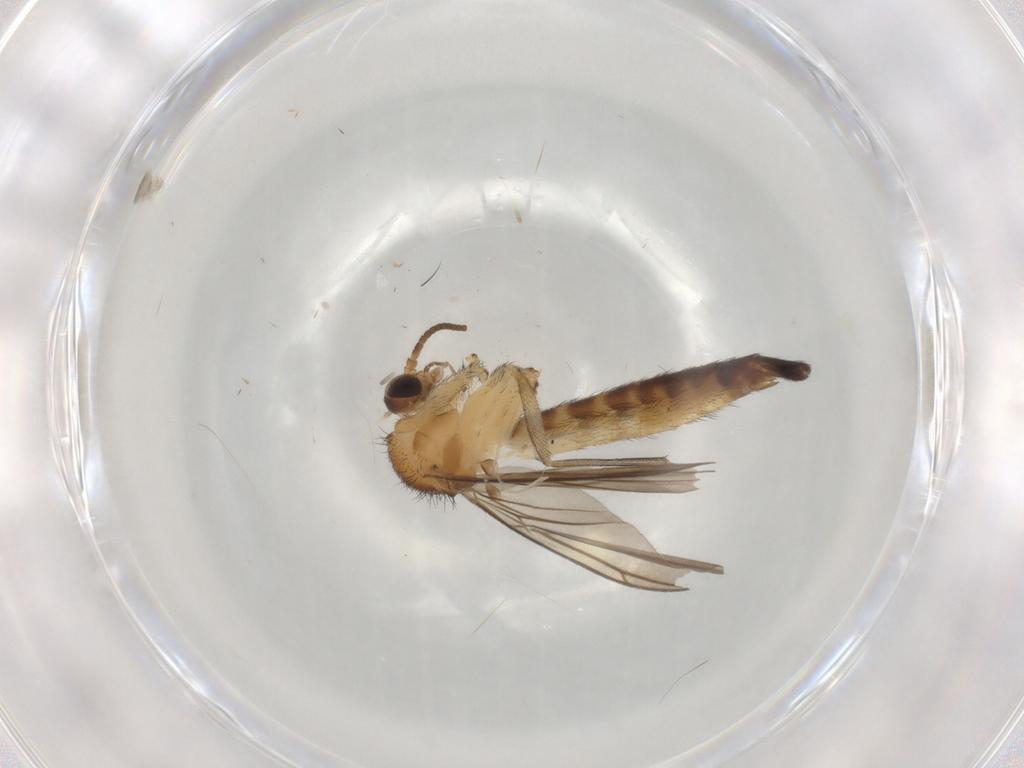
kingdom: Animalia
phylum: Arthropoda
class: Insecta
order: Diptera
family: Keroplatidae
